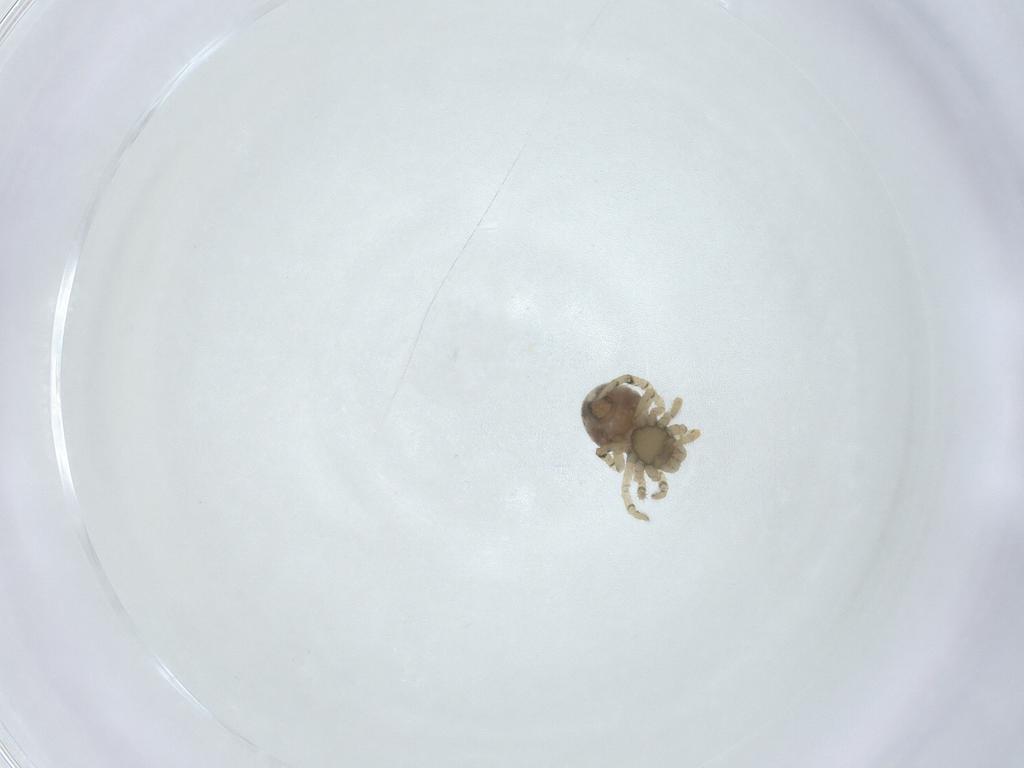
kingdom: Animalia
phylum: Arthropoda
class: Arachnida
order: Araneae
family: Theridiidae
